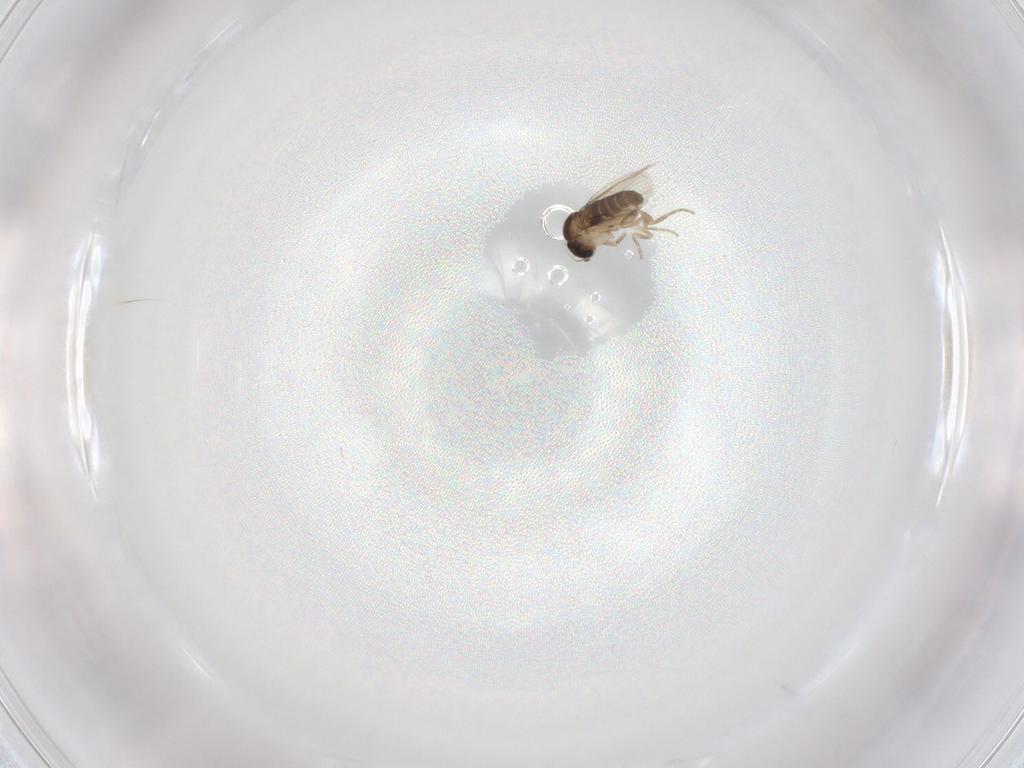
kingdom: Animalia
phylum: Arthropoda
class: Insecta
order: Diptera
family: Phoridae
